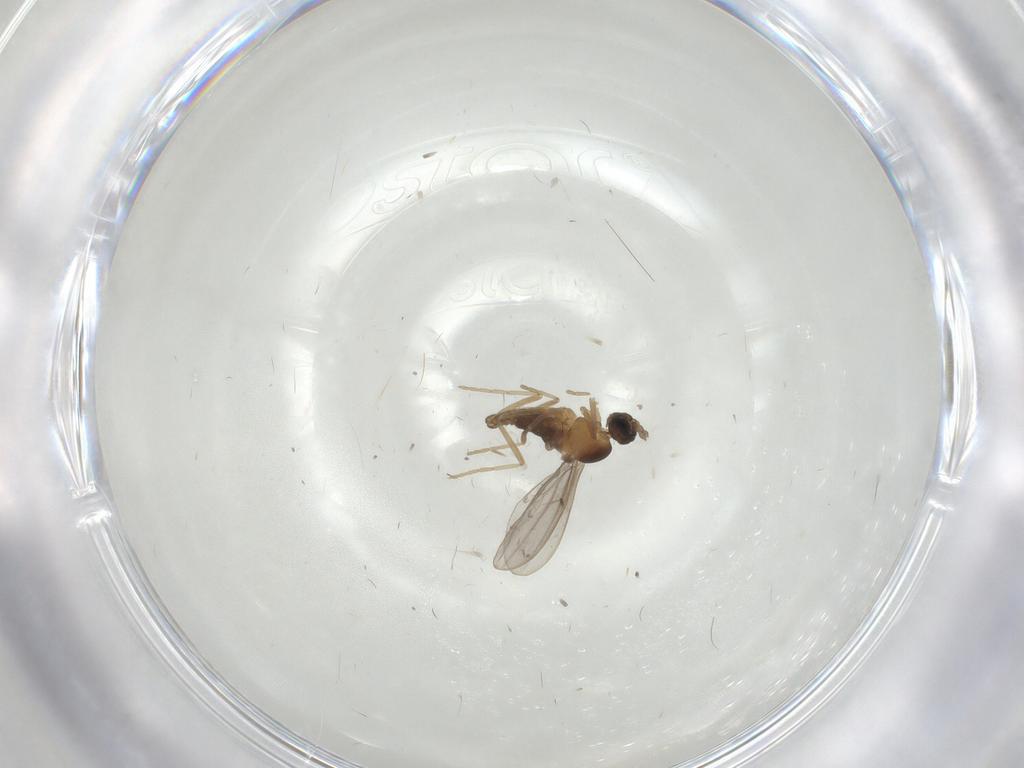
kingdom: Animalia
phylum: Arthropoda
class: Insecta
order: Diptera
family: Cecidomyiidae
